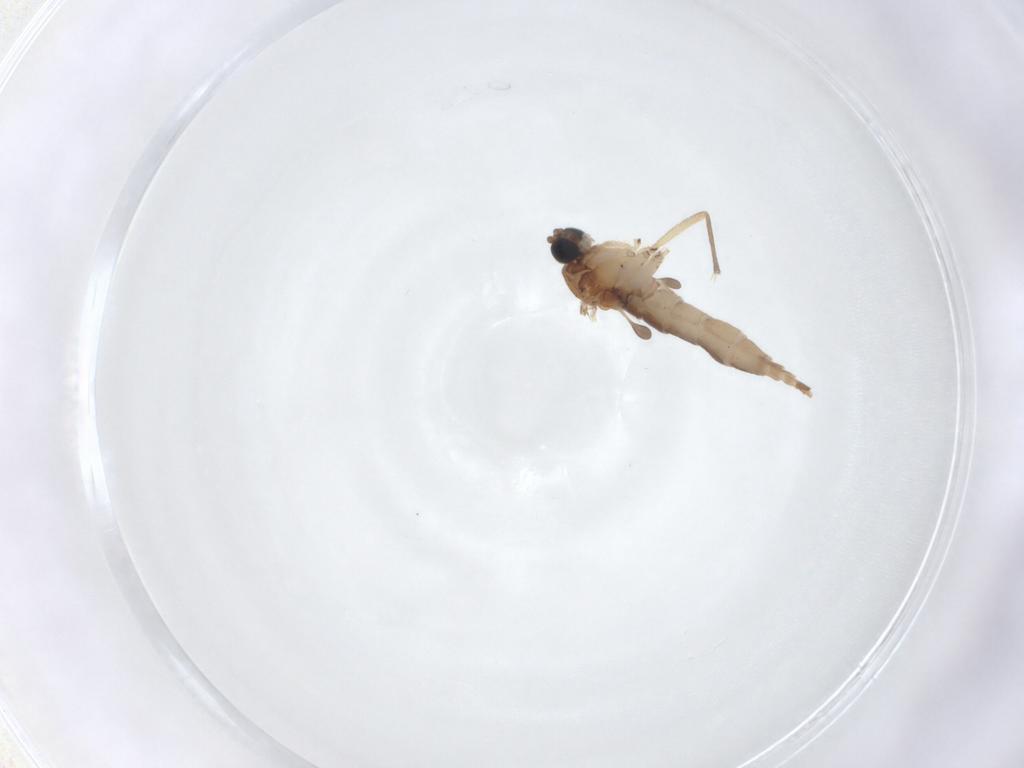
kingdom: Animalia
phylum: Arthropoda
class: Insecta
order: Diptera
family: Sciaridae
